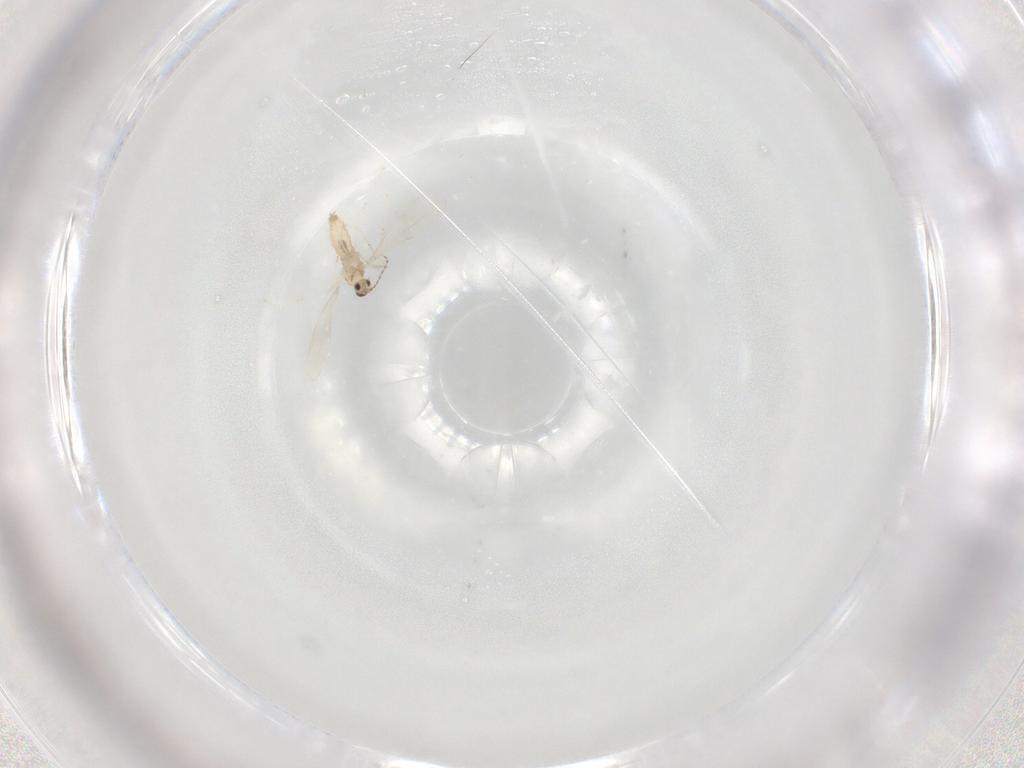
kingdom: Animalia
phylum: Arthropoda
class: Insecta
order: Diptera
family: Cecidomyiidae
